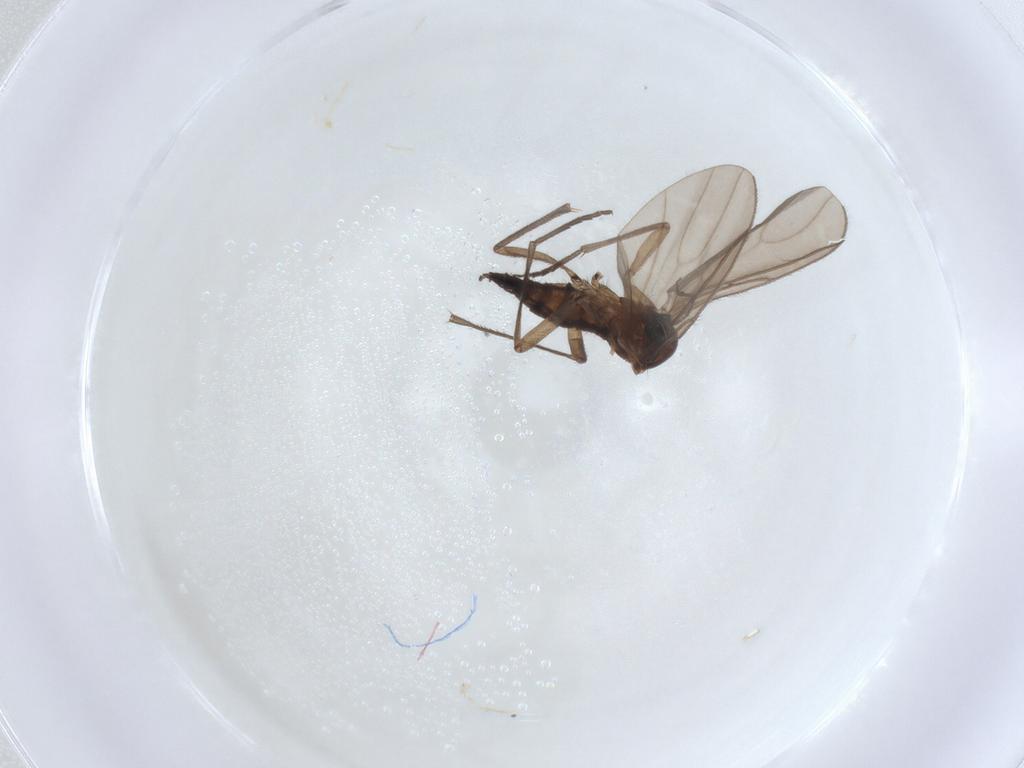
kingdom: Animalia
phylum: Arthropoda
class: Insecta
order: Diptera
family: Sciaridae
